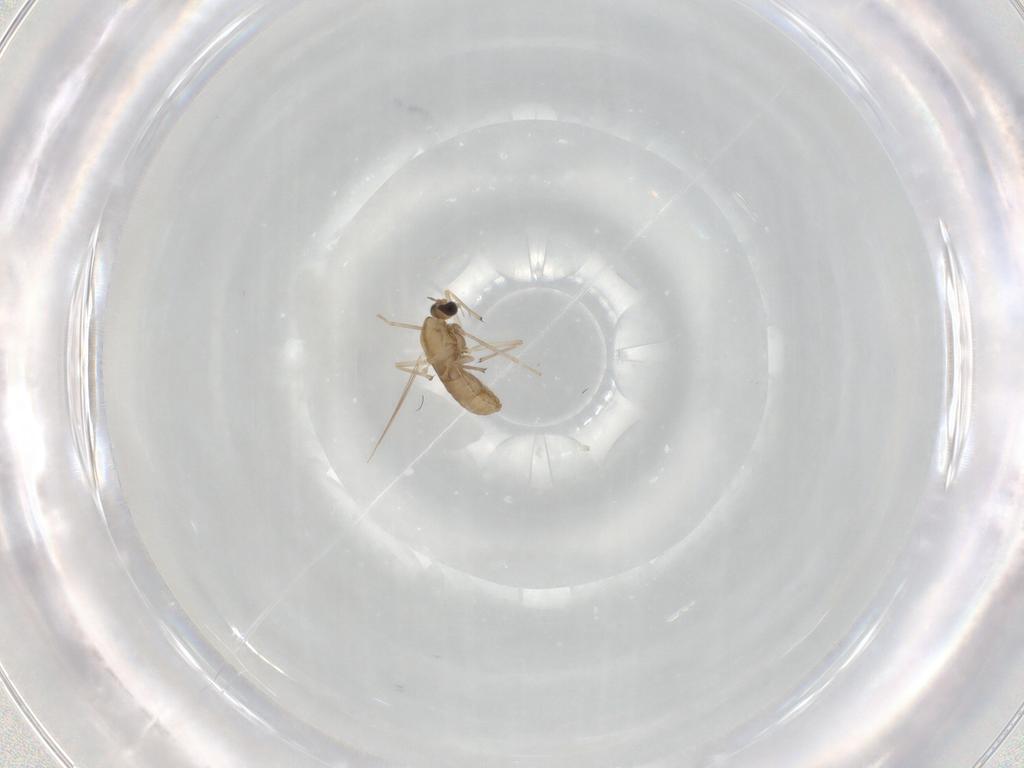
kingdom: Animalia
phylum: Arthropoda
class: Insecta
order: Diptera
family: Chironomidae
